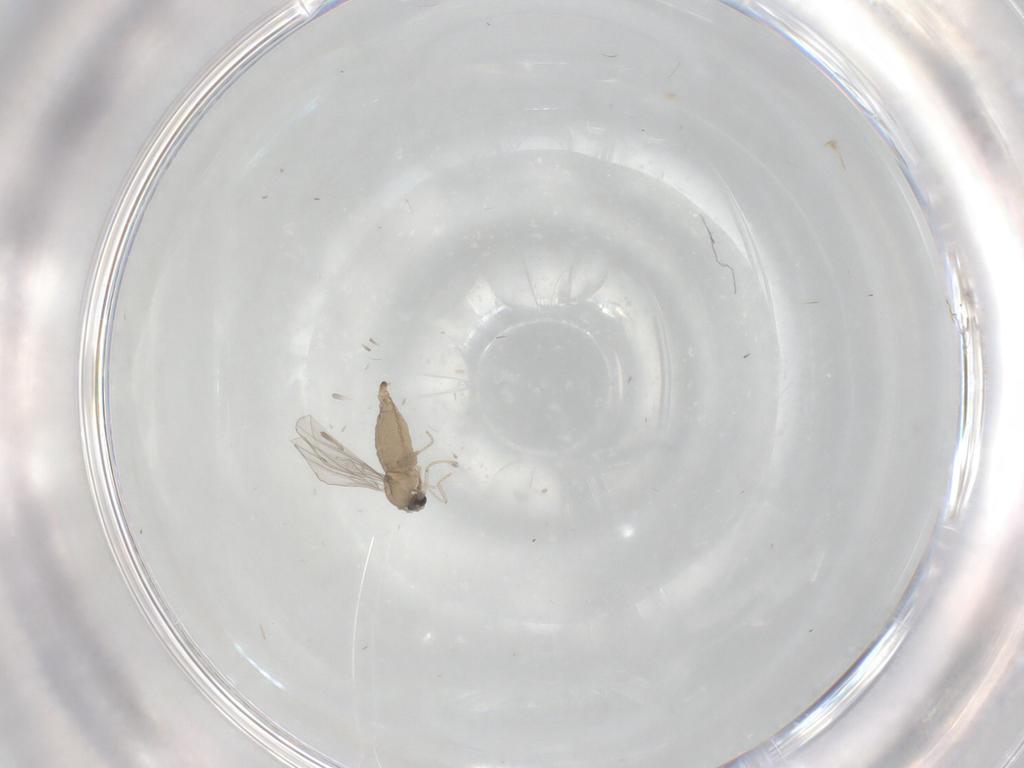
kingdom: Animalia
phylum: Arthropoda
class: Insecta
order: Diptera
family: Cecidomyiidae
